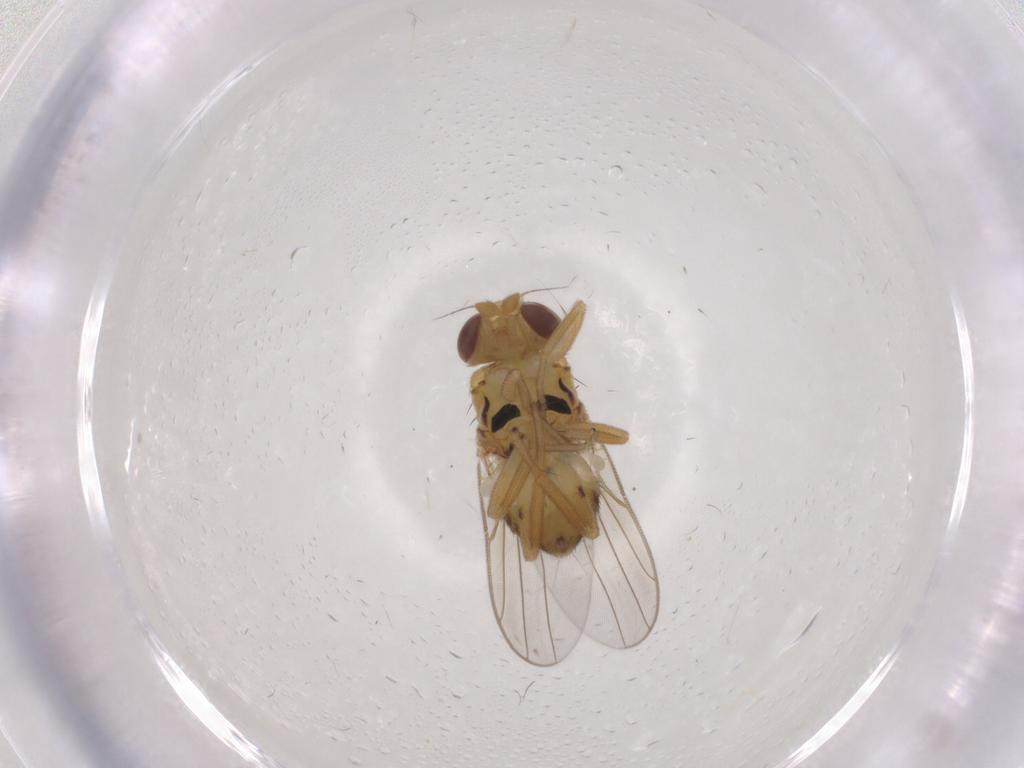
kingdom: Animalia
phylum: Arthropoda
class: Insecta
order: Diptera
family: Chloropidae
